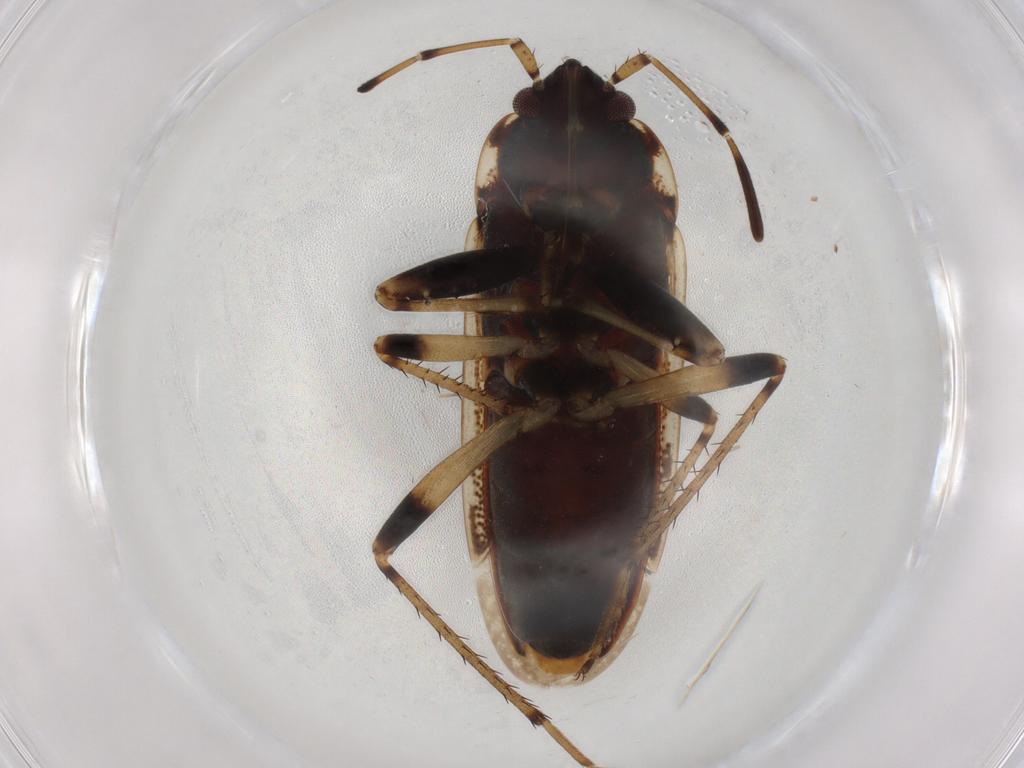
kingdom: Animalia
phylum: Arthropoda
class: Insecta
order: Hemiptera
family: Rhyparochromidae
